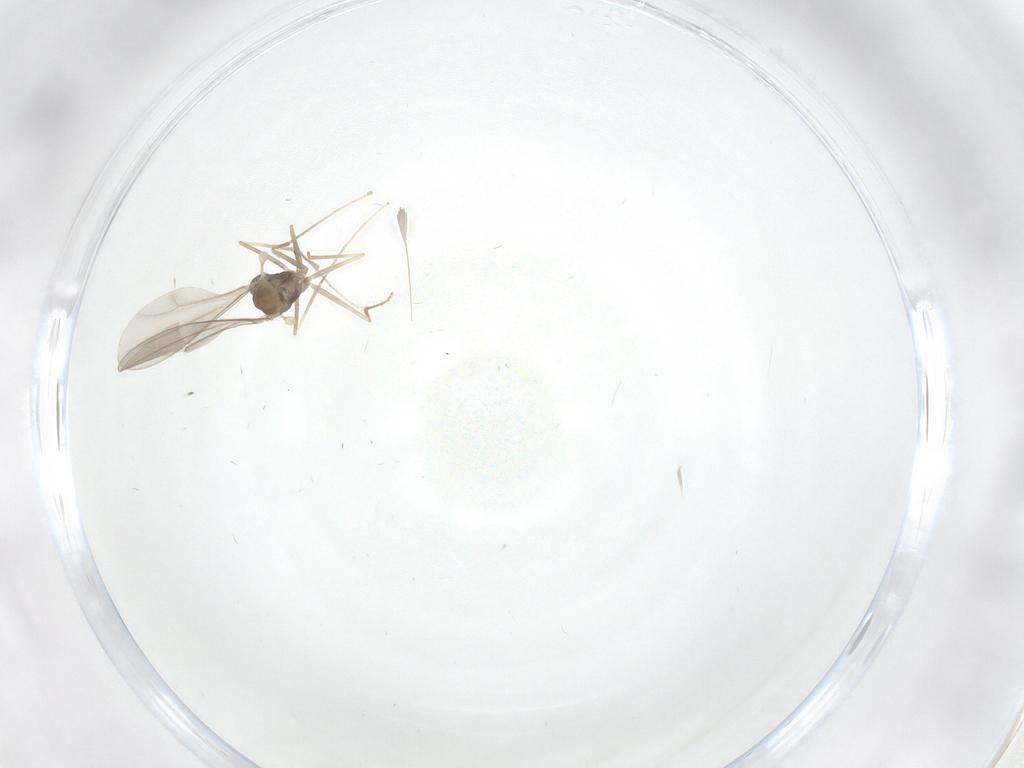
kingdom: Animalia
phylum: Arthropoda
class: Insecta
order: Diptera
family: Cecidomyiidae
